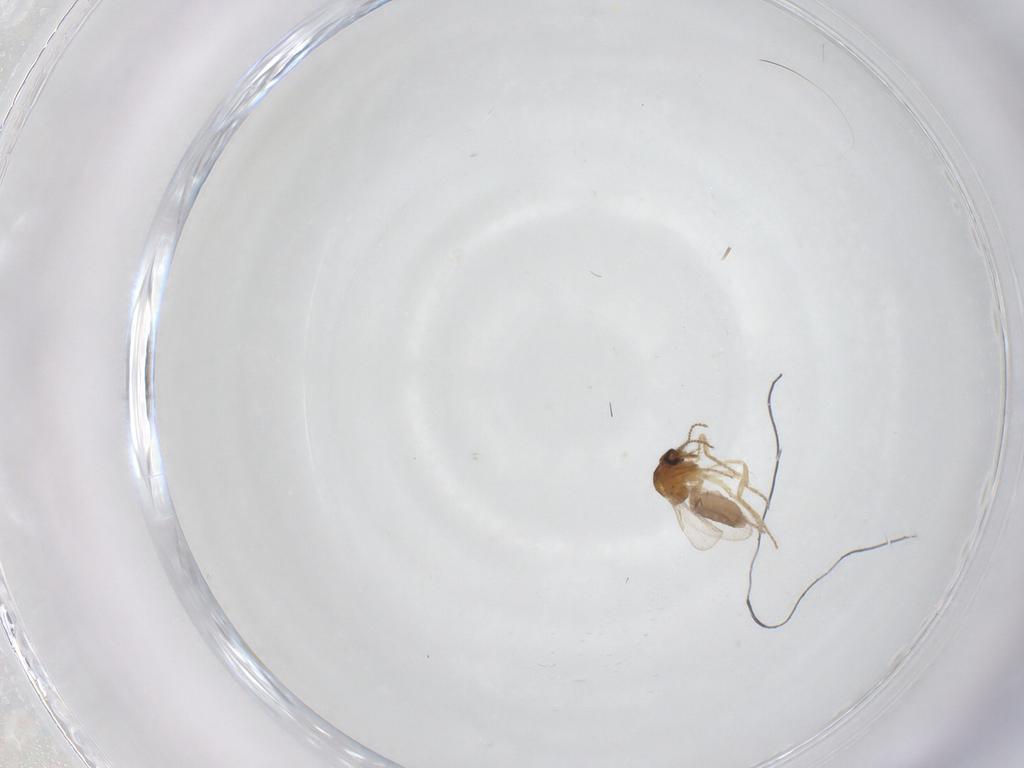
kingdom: Animalia
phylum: Arthropoda
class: Insecta
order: Diptera
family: Ceratopogonidae
